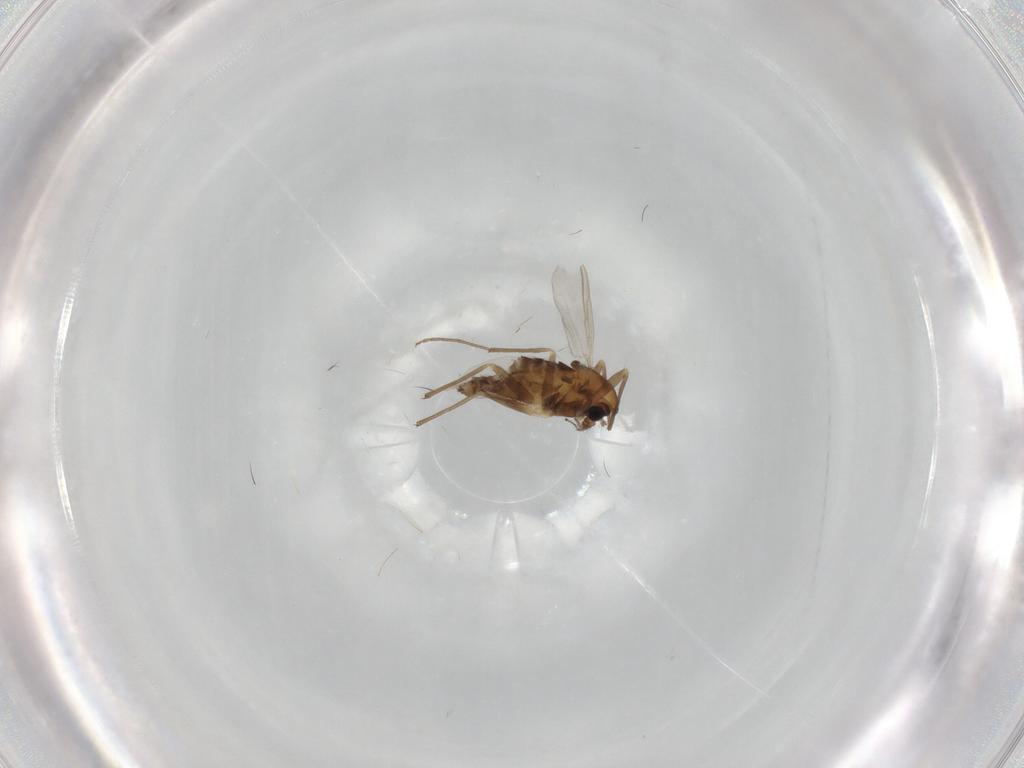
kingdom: Animalia
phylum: Arthropoda
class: Insecta
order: Diptera
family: Chironomidae
